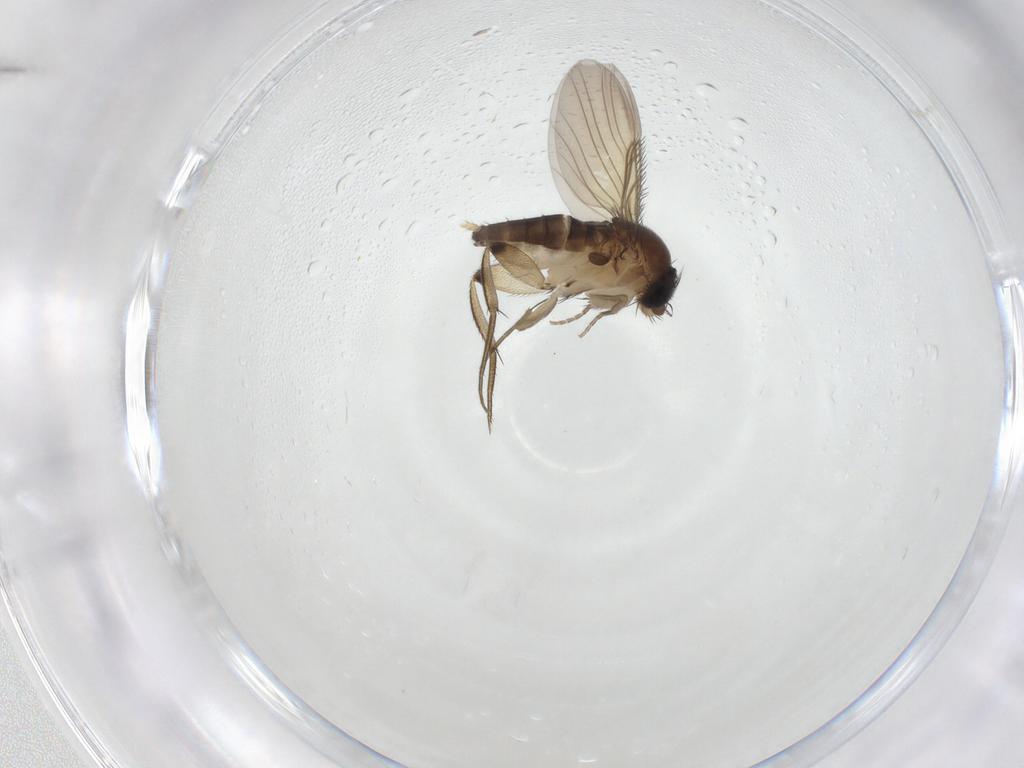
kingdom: Animalia
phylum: Arthropoda
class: Insecta
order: Diptera
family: Phoridae
